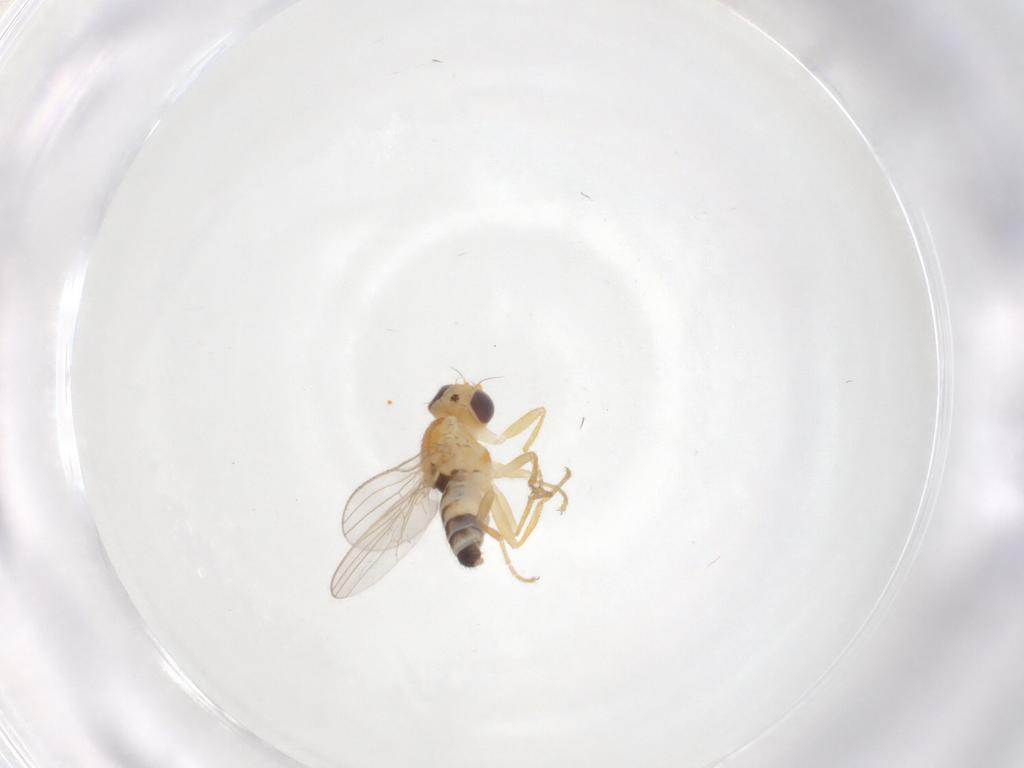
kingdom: Animalia
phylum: Arthropoda
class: Insecta
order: Diptera
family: Chyromyidae
